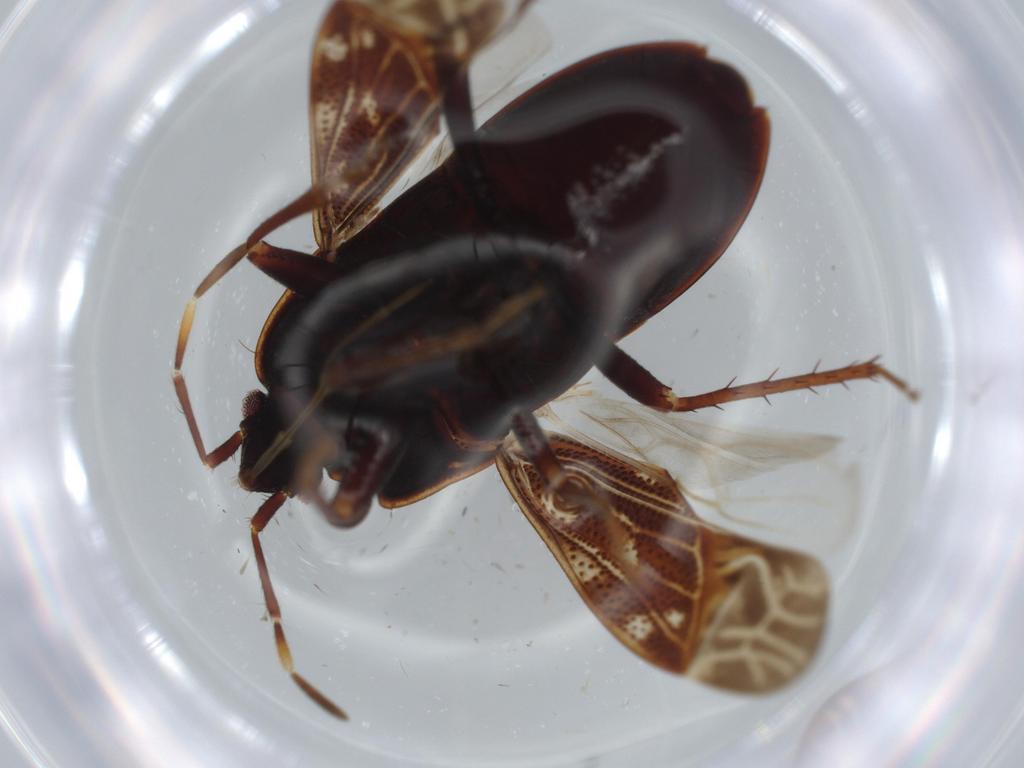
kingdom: Animalia
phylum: Arthropoda
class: Insecta
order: Hemiptera
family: Rhyparochromidae
